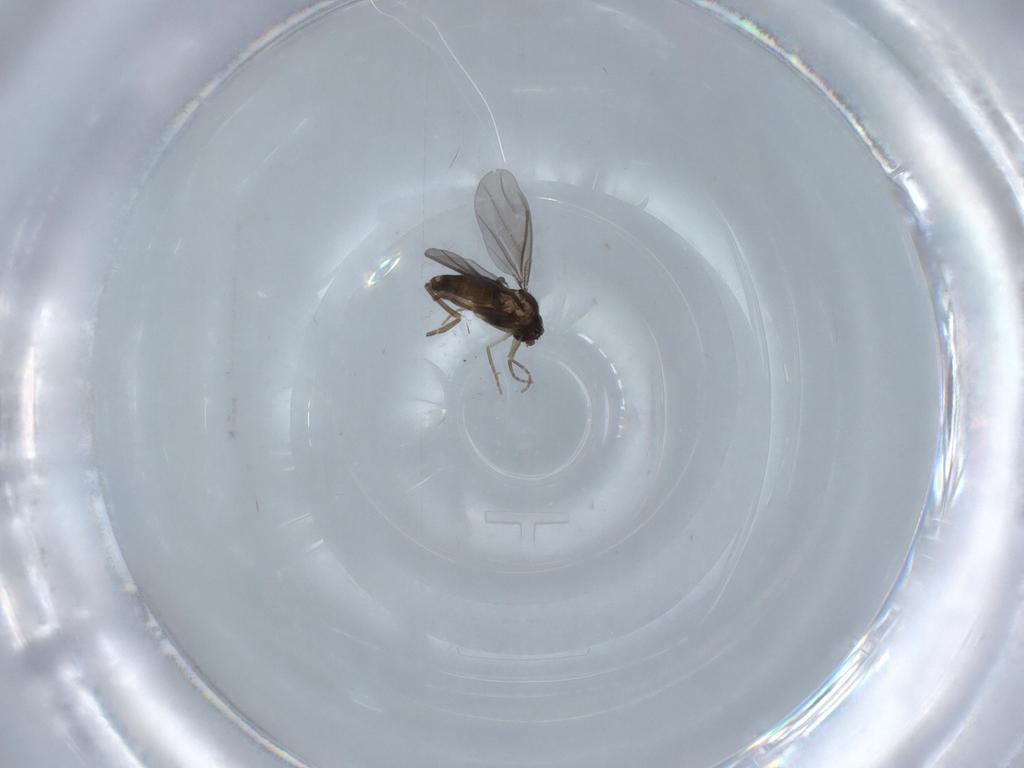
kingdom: Animalia
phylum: Arthropoda
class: Insecta
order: Diptera
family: Phoridae
